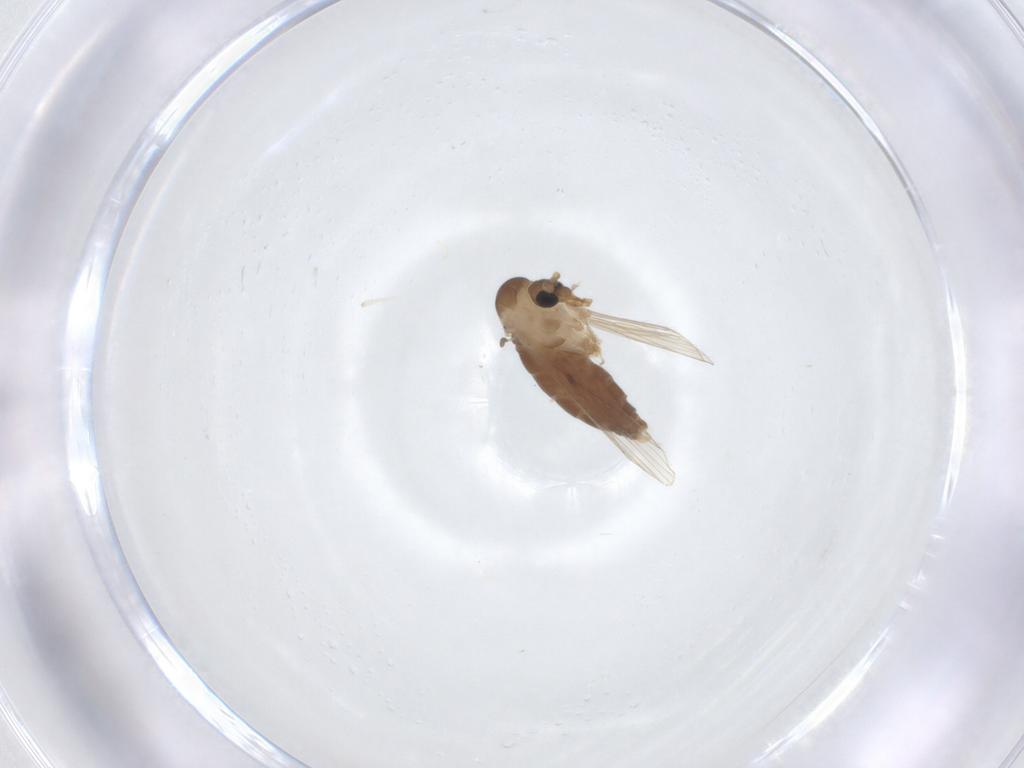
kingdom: Animalia
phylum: Arthropoda
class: Insecta
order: Diptera
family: Psychodidae
